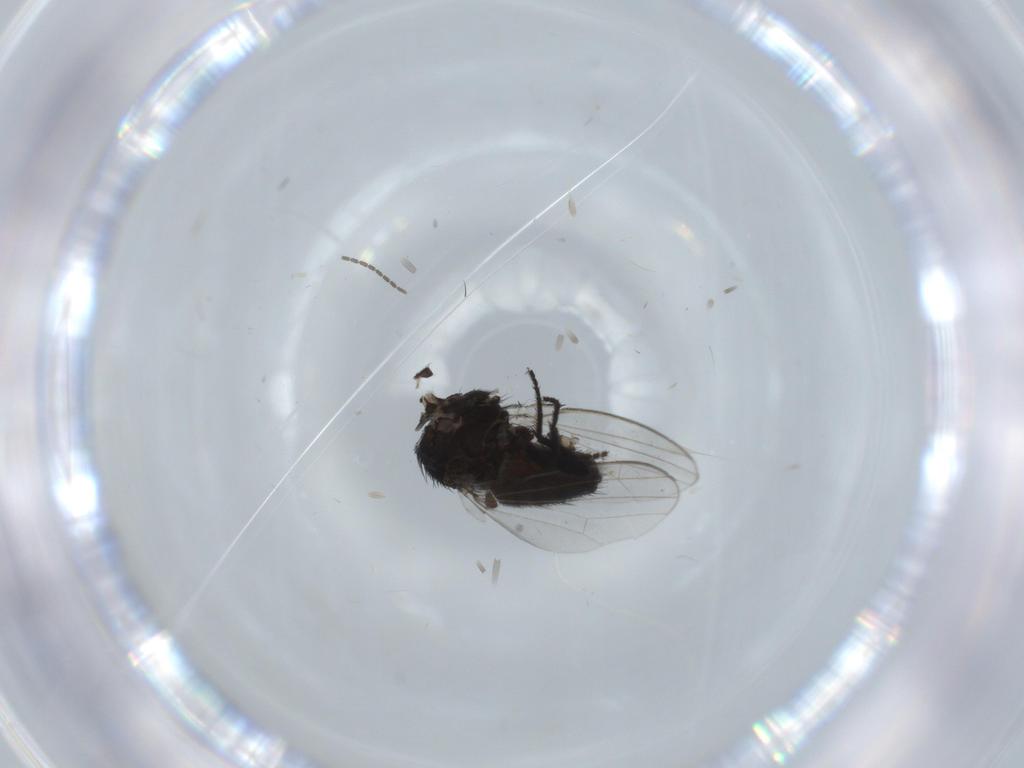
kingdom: Animalia
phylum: Arthropoda
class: Insecta
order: Diptera
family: Milichiidae
